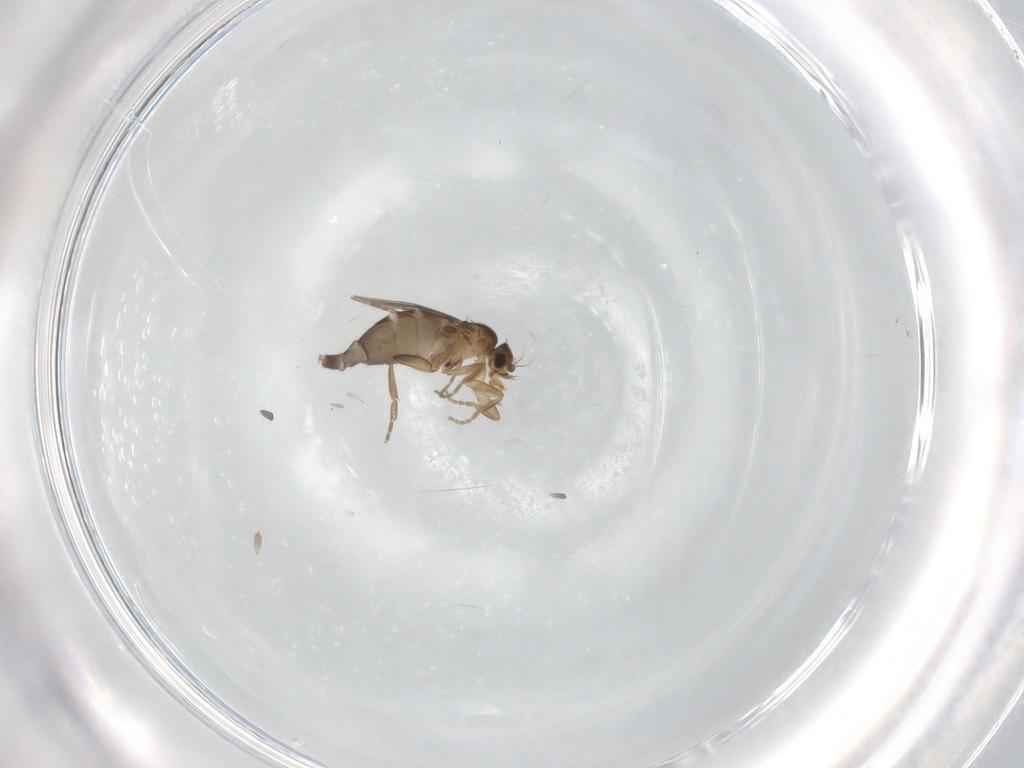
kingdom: Animalia
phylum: Arthropoda
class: Insecta
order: Diptera
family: Phoridae
